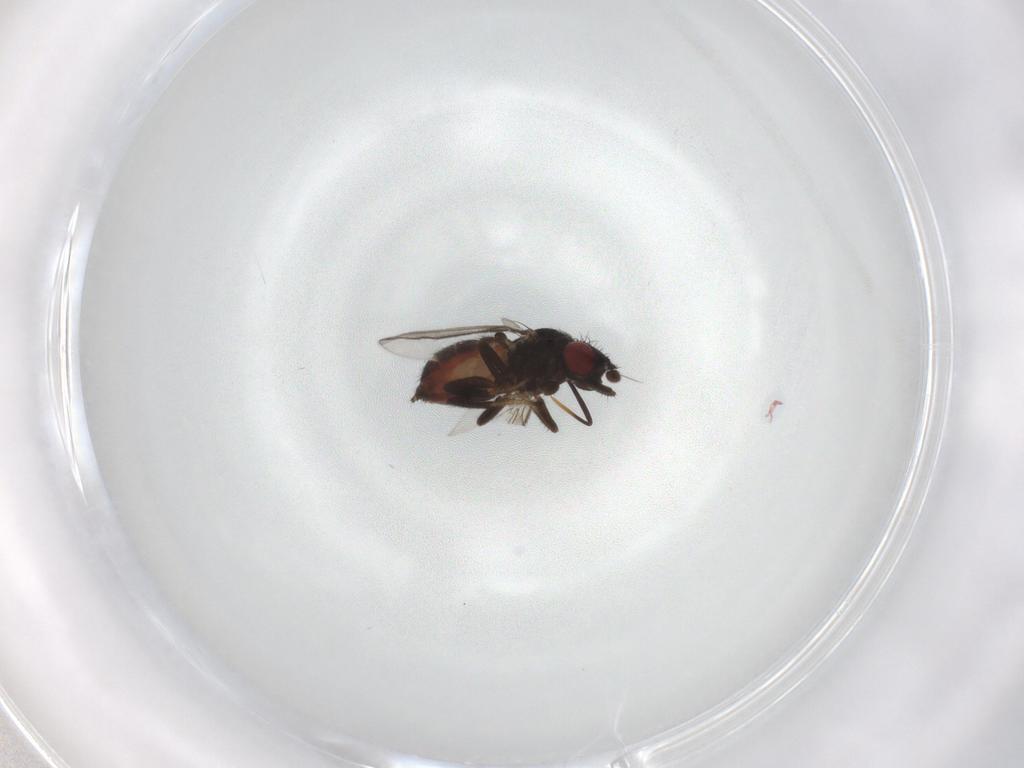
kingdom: Animalia
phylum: Arthropoda
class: Insecta
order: Diptera
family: Milichiidae
